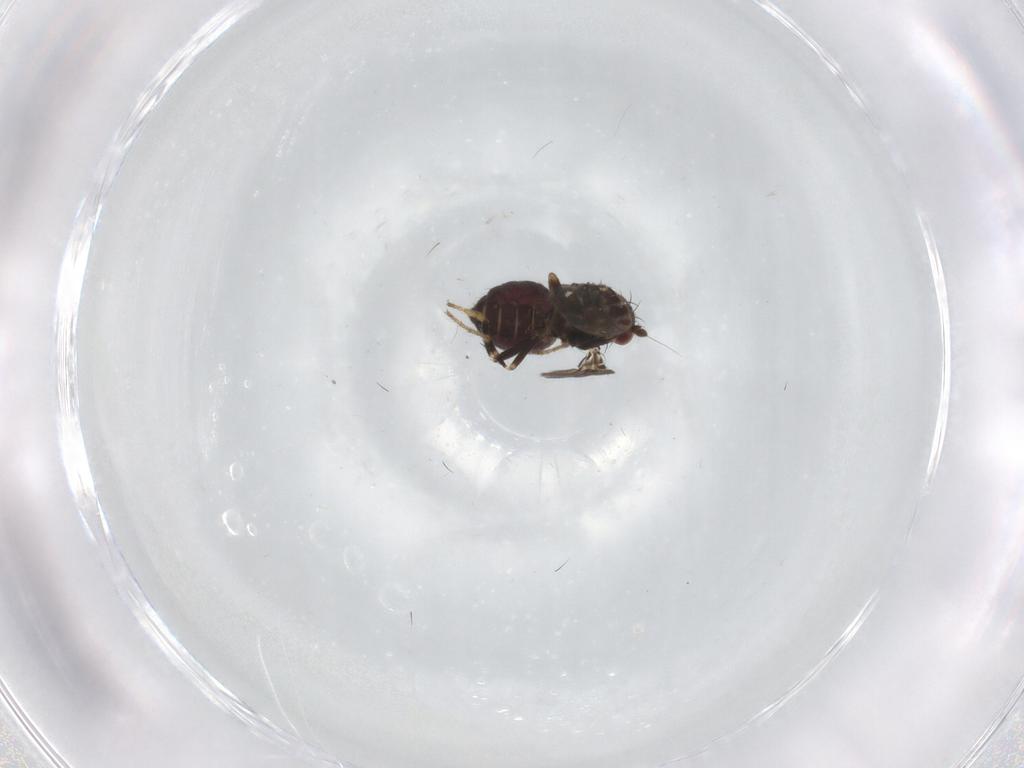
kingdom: Animalia
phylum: Arthropoda
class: Insecta
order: Diptera
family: Sphaeroceridae
